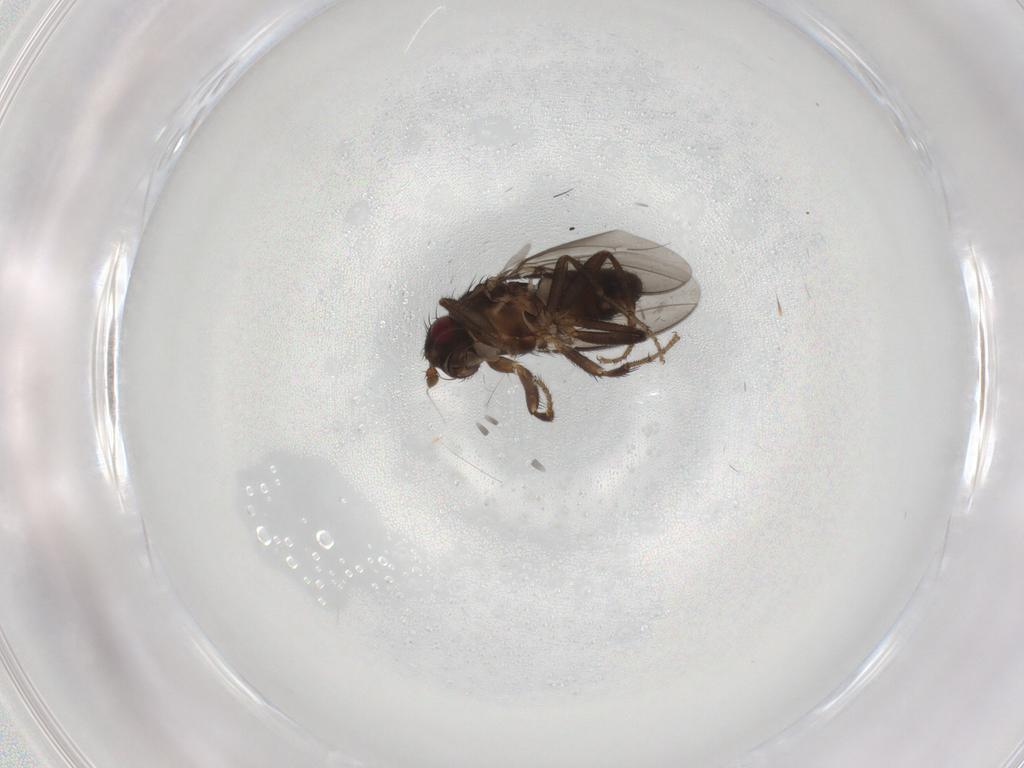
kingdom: Animalia
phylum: Arthropoda
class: Insecta
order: Diptera
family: Sphaeroceridae
